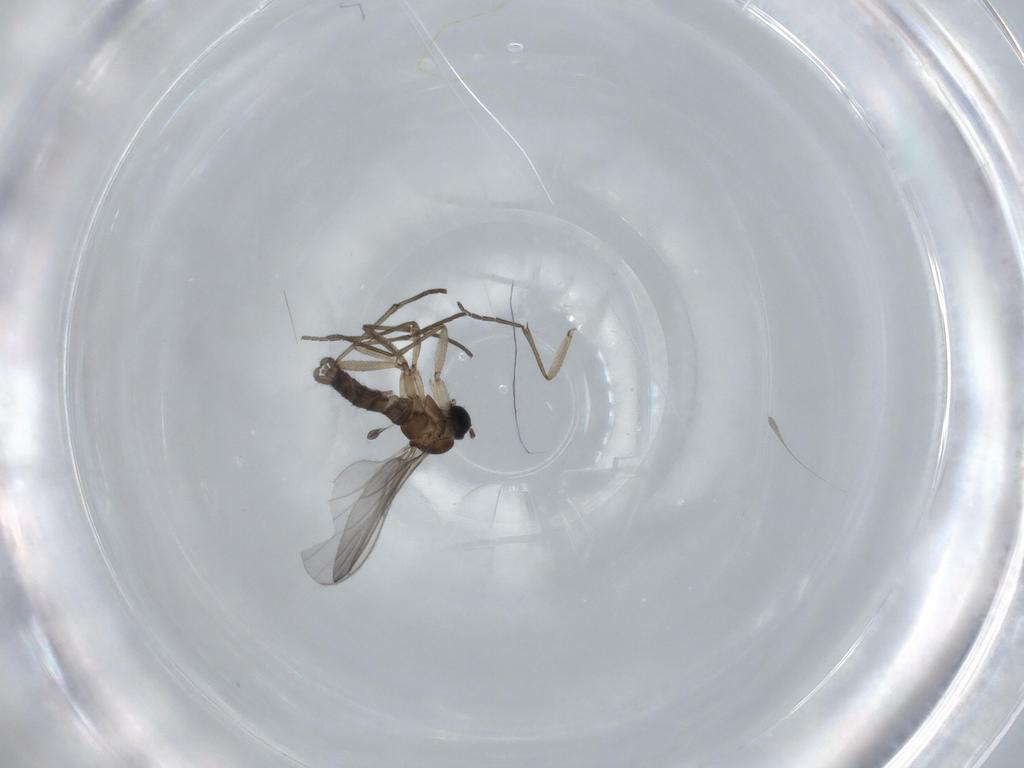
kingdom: Animalia
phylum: Arthropoda
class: Insecta
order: Diptera
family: Sciaridae
